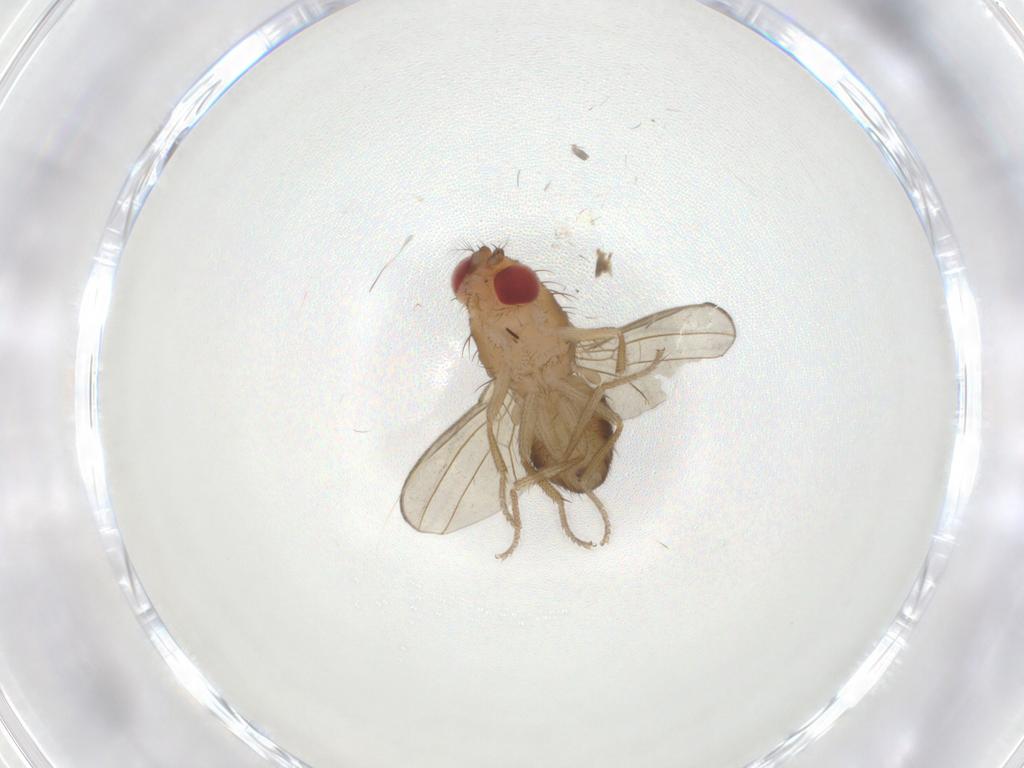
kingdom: Animalia
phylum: Arthropoda
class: Insecta
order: Diptera
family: Drosophilidae
